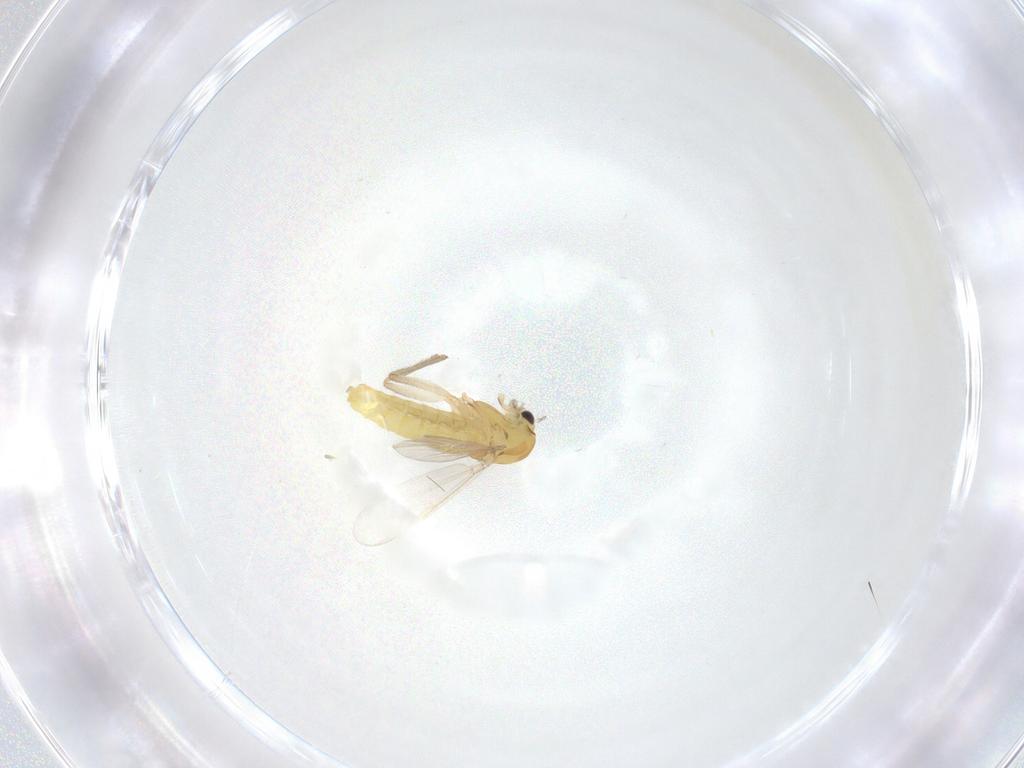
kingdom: Animalia
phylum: Arthropoda
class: Insecta
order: Diptera
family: Chironomidae
